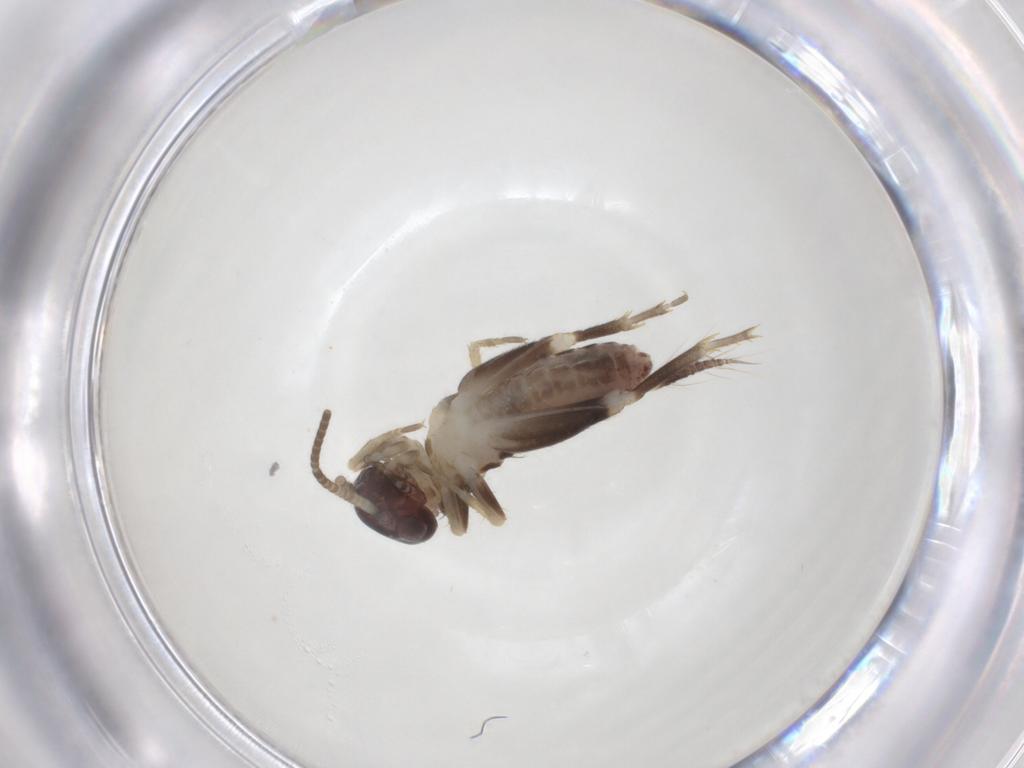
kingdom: Animalia
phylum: Arthropoda
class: Insecta
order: Orthoptera
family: Gryllidae
